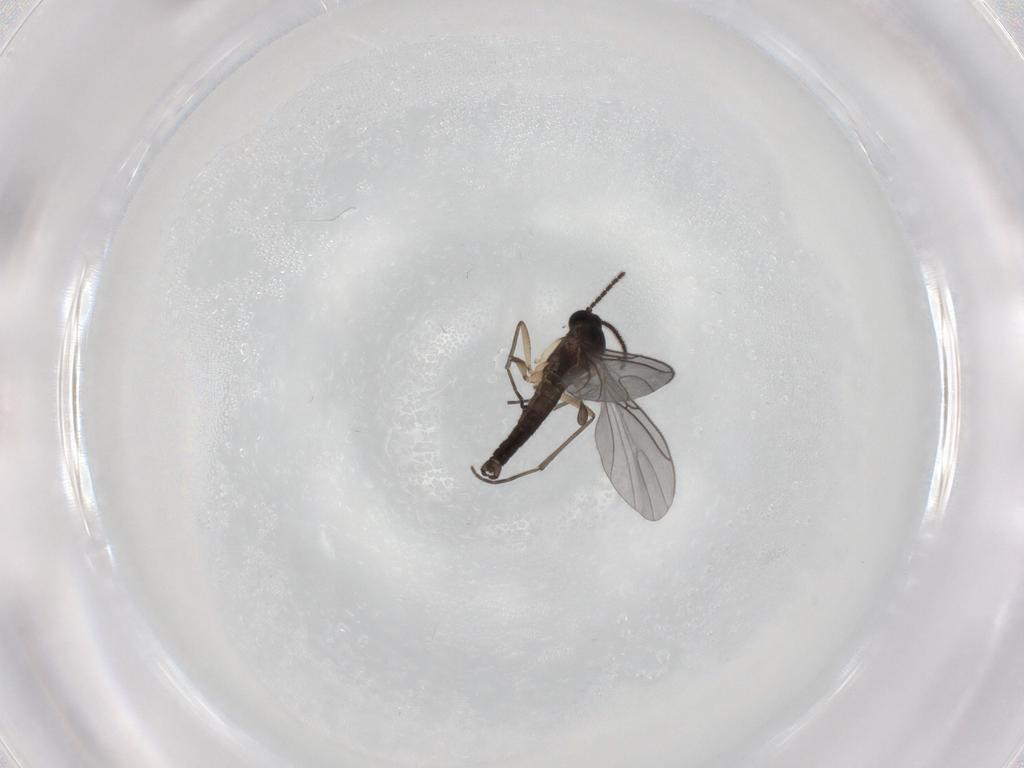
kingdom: Animalia
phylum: Arthropoda
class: Insecta
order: Diptera
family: Sciaridae
